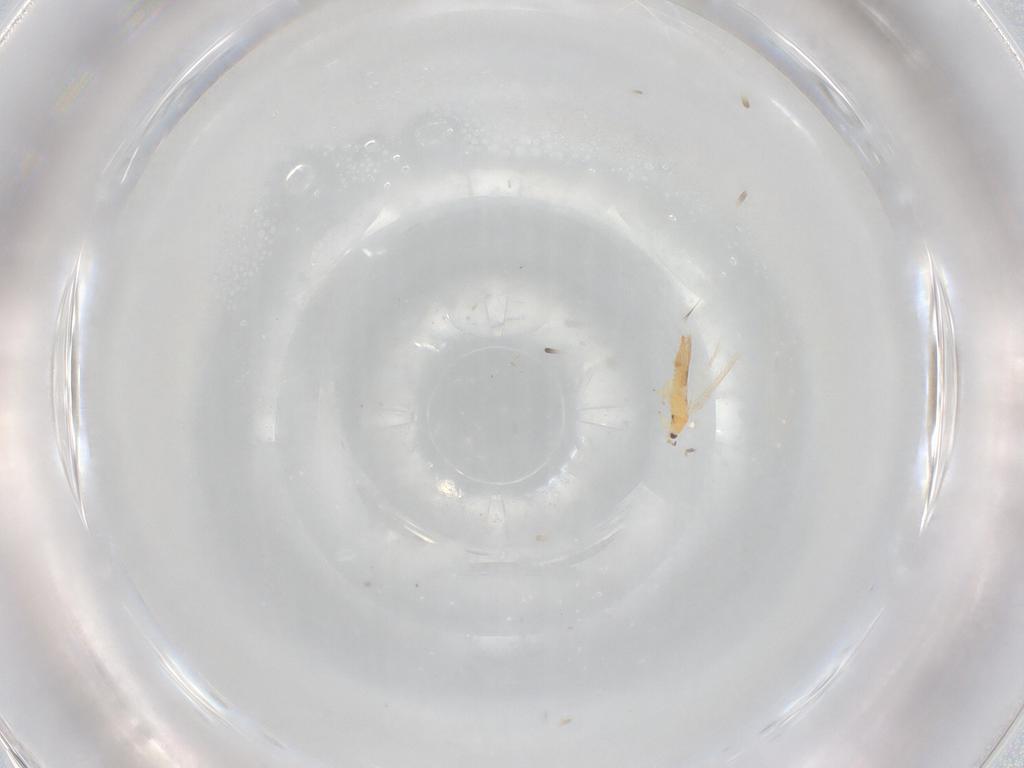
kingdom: Animalia
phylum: Arthropoda
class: Insecta
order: Thysanoptera
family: Thripidae
